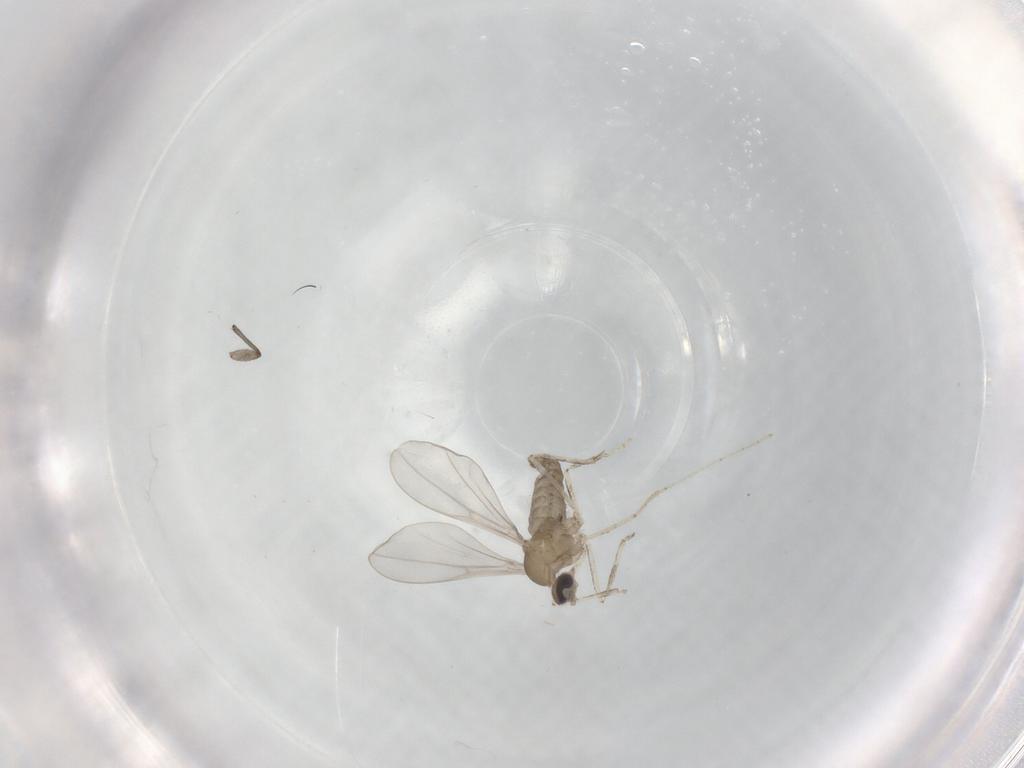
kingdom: Animalia
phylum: Arthropoda
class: Insecta
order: Diptera
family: Cecidomyiidae
